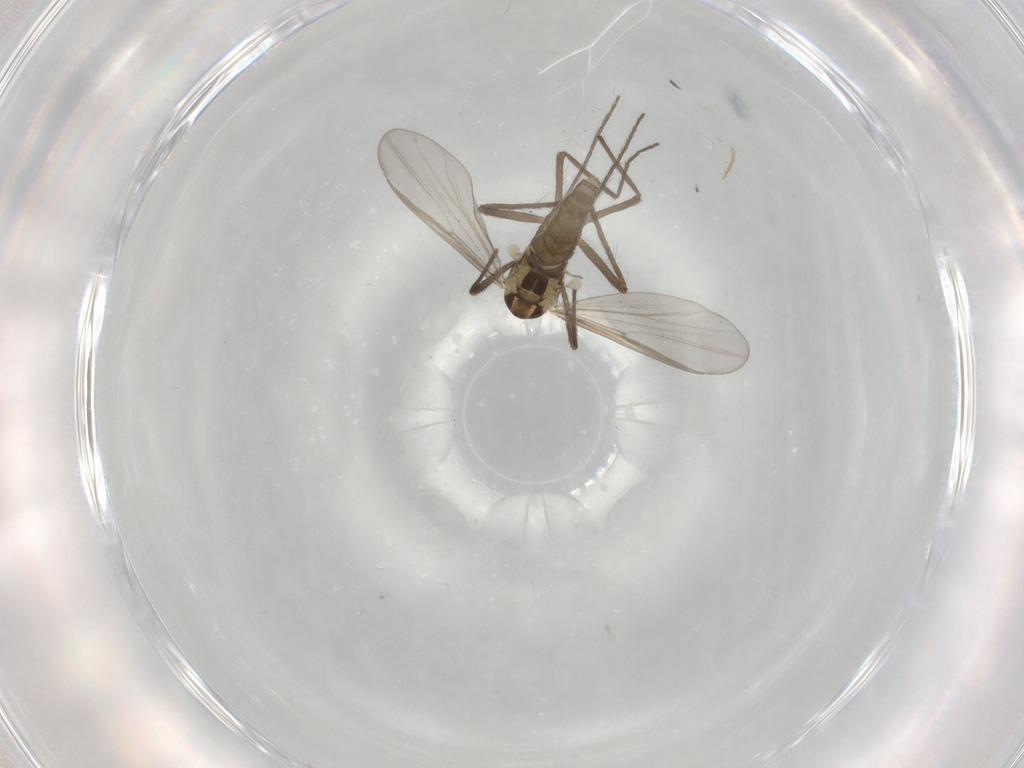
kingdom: Animalia
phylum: Arthropoda
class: Insecta
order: Diptera
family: Chironomidae
